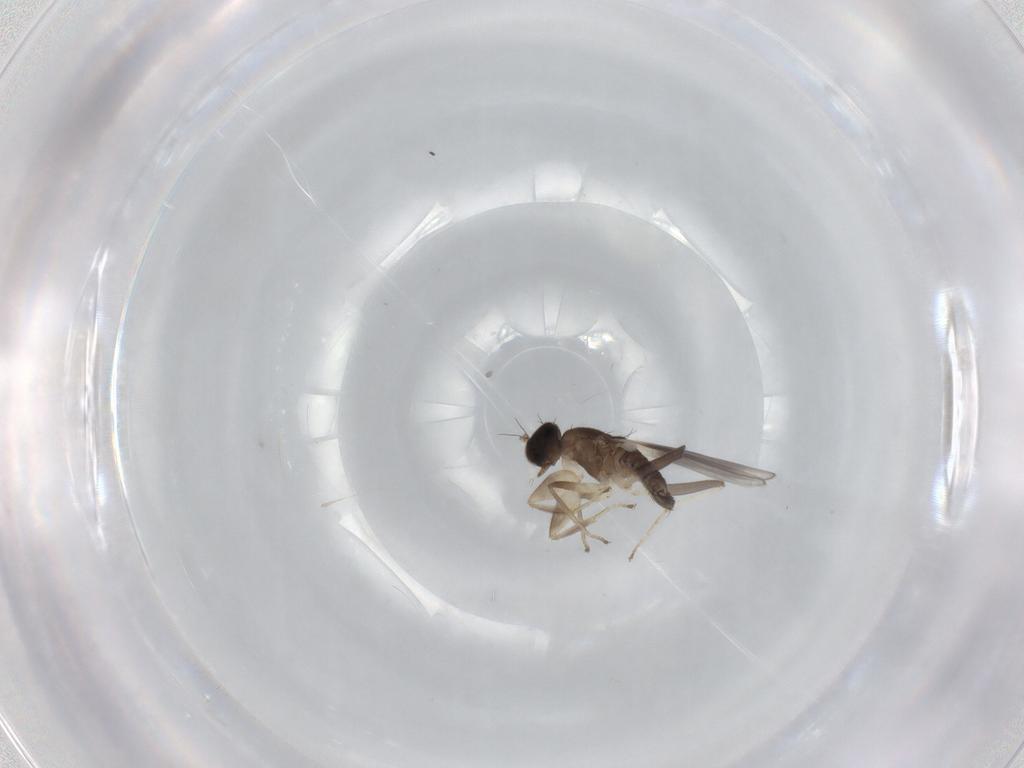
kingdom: Animalia
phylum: Arthropoda
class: Insecta
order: Diptera
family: Hybotidae
